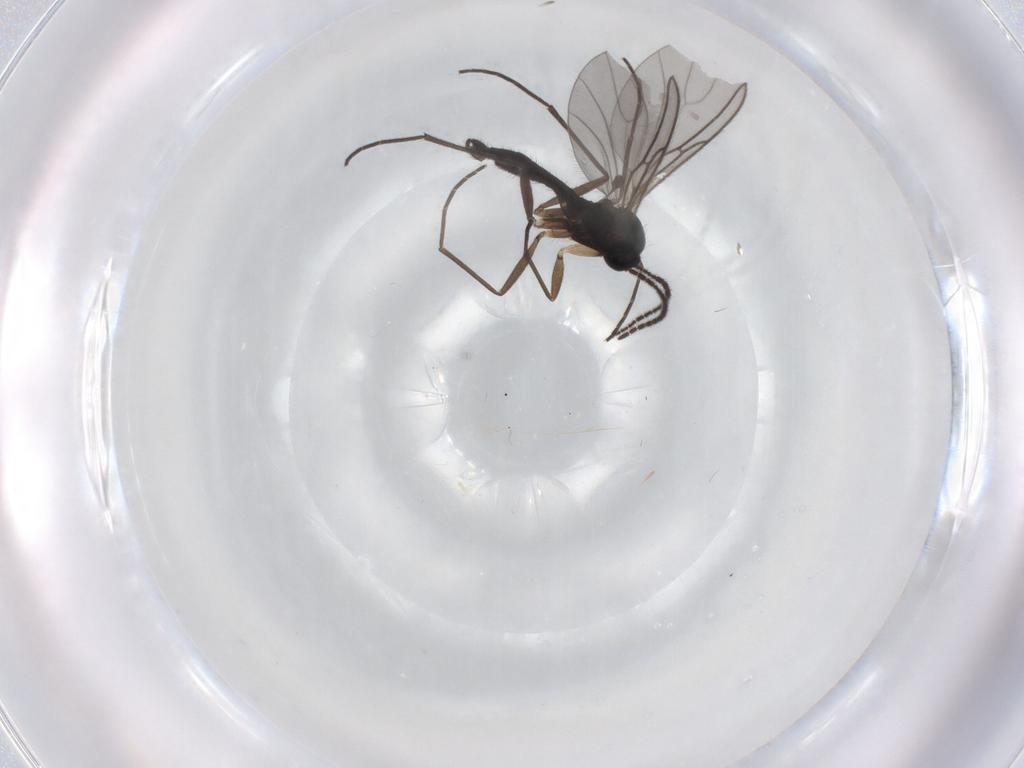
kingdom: Animalia
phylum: Arthropoda
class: Insecta
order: Diptera
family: Sciaridae
